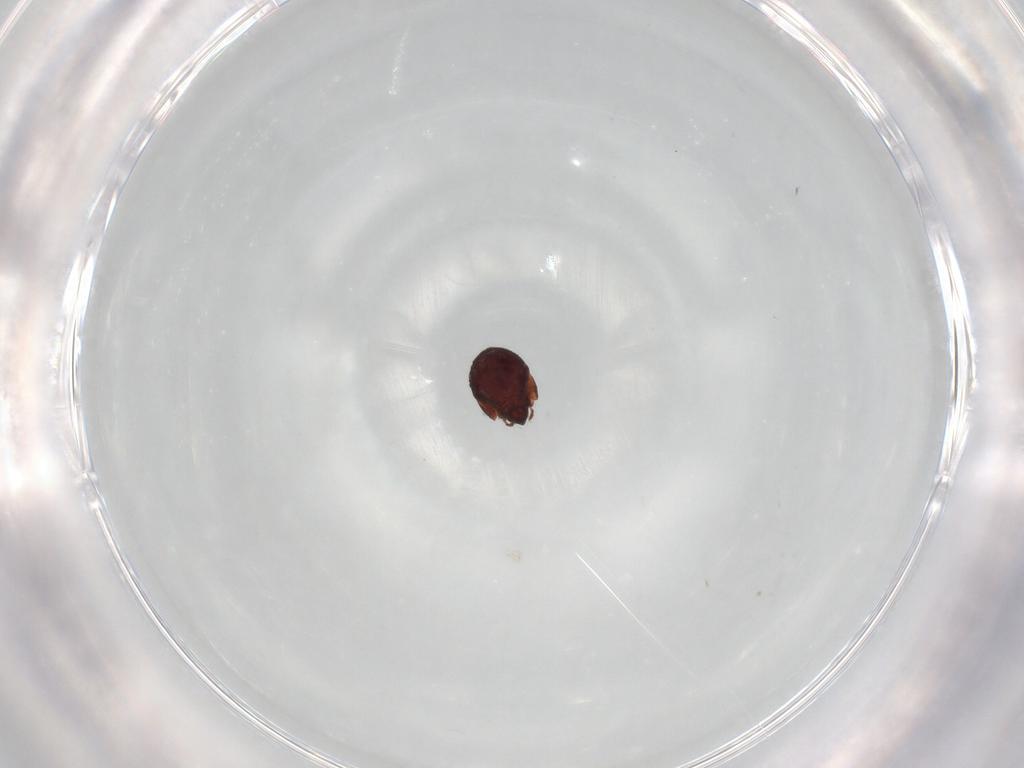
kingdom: Animalia
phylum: Arthropoda
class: Arachnida
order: Sarcoptiformes
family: Humerobatidae
